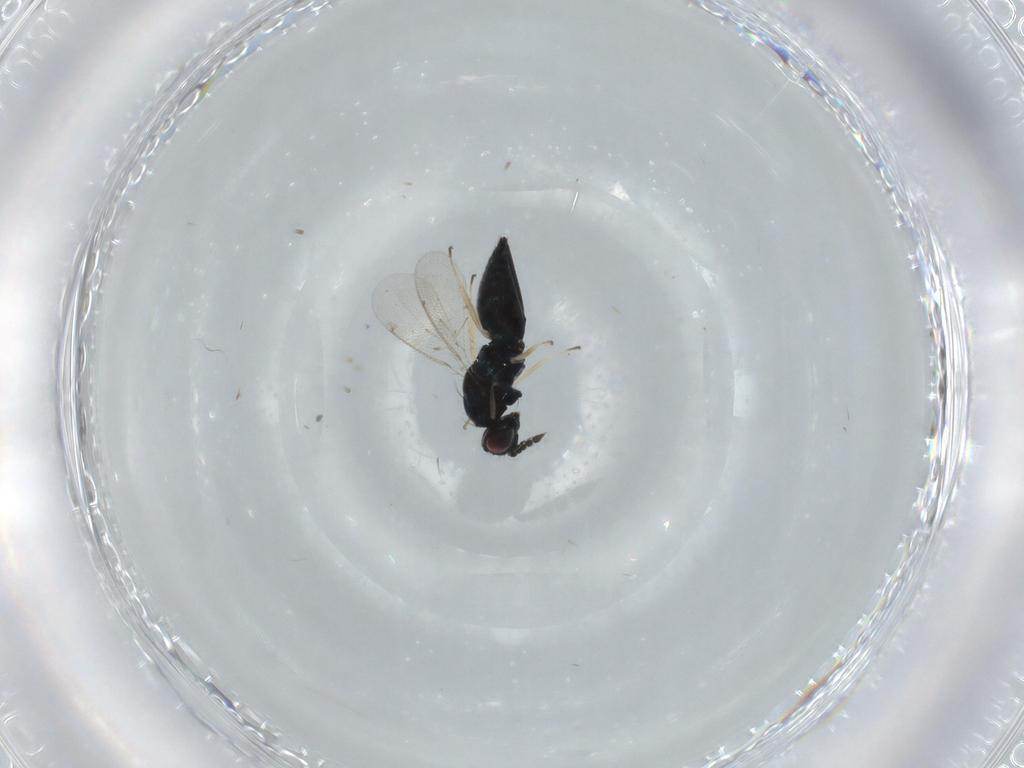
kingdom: Animalia
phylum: Arthropoda
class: Insecta
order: Hymenoptera
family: Eulophidae
